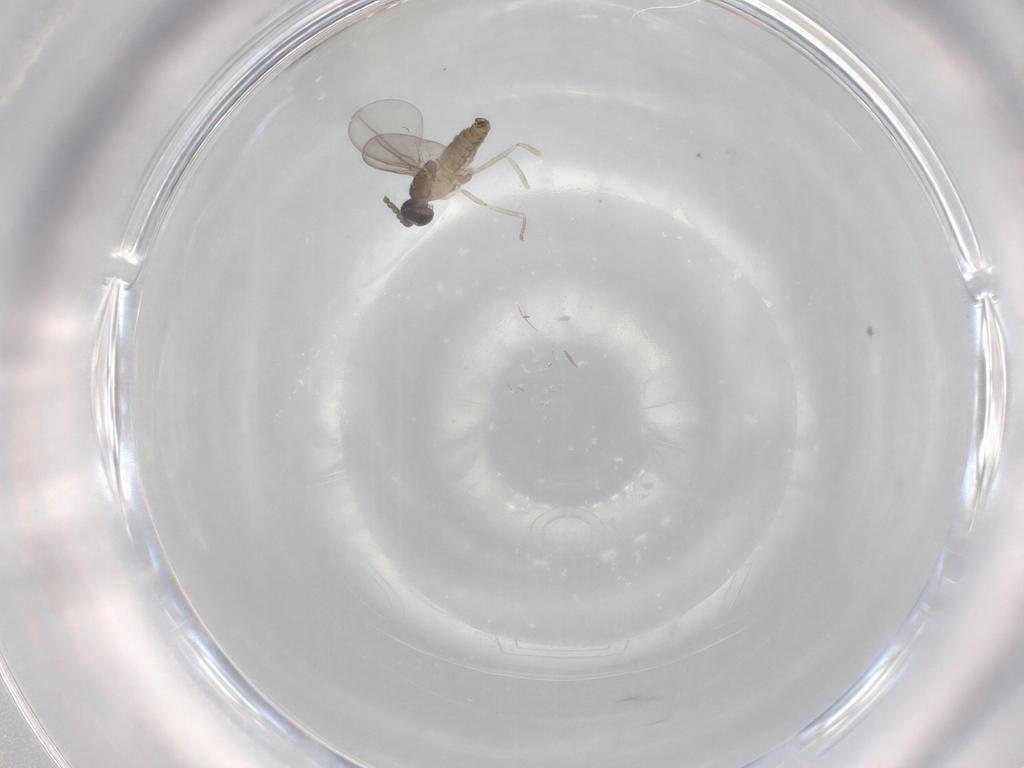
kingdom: Animalia
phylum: Arthropoda
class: Insecta
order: Diptera
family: Cecidomyiidae
